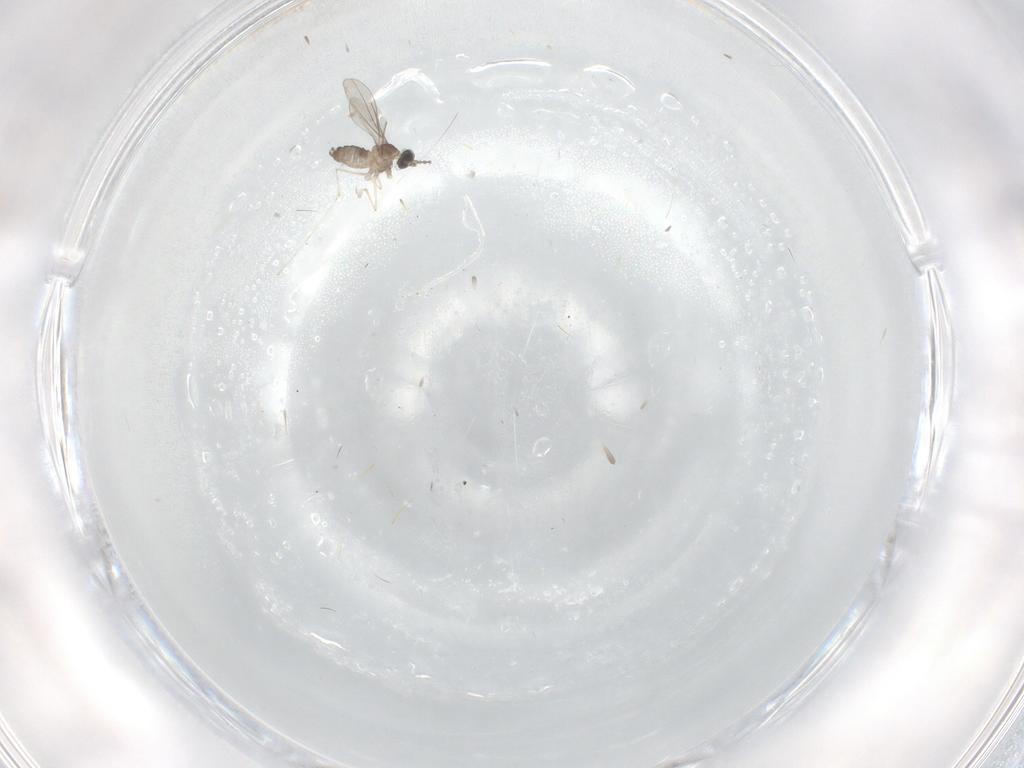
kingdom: Animalia
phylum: Arthropoda
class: Insecta
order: Diptera
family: Cecidomyiidae
